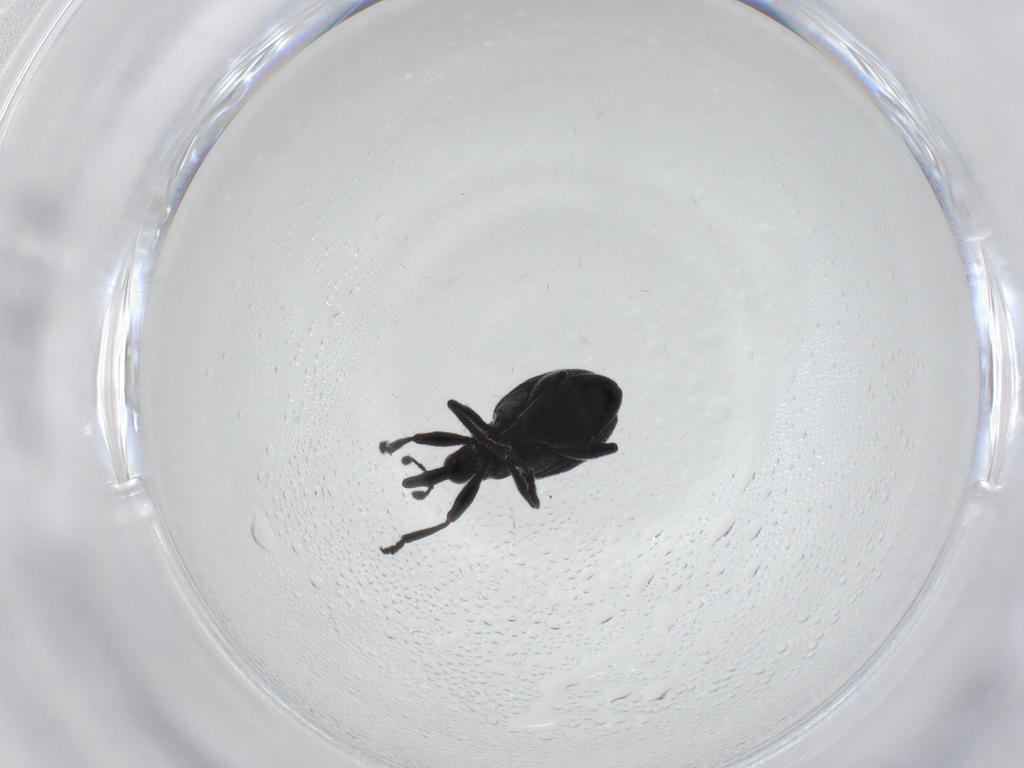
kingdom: Animalia
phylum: Arthropoda
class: Insecta
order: Coleoptera
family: Brentidae
